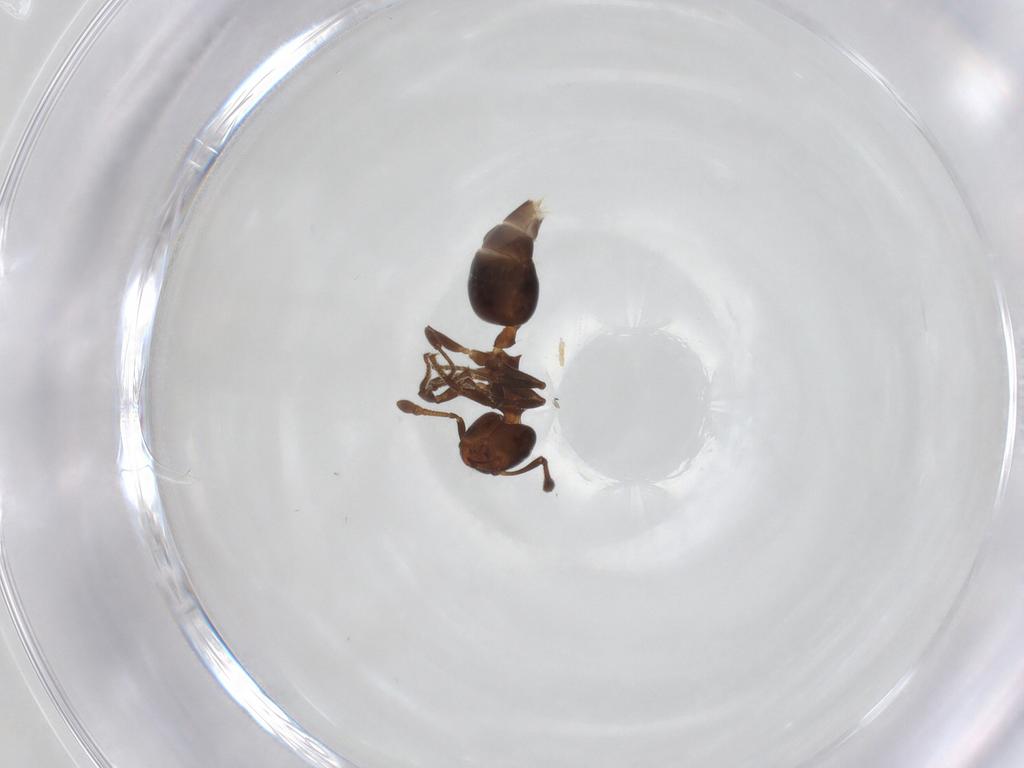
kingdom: Animalia
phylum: Arthropoda
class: Insecta
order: Hymenoptera
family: Formicidae
